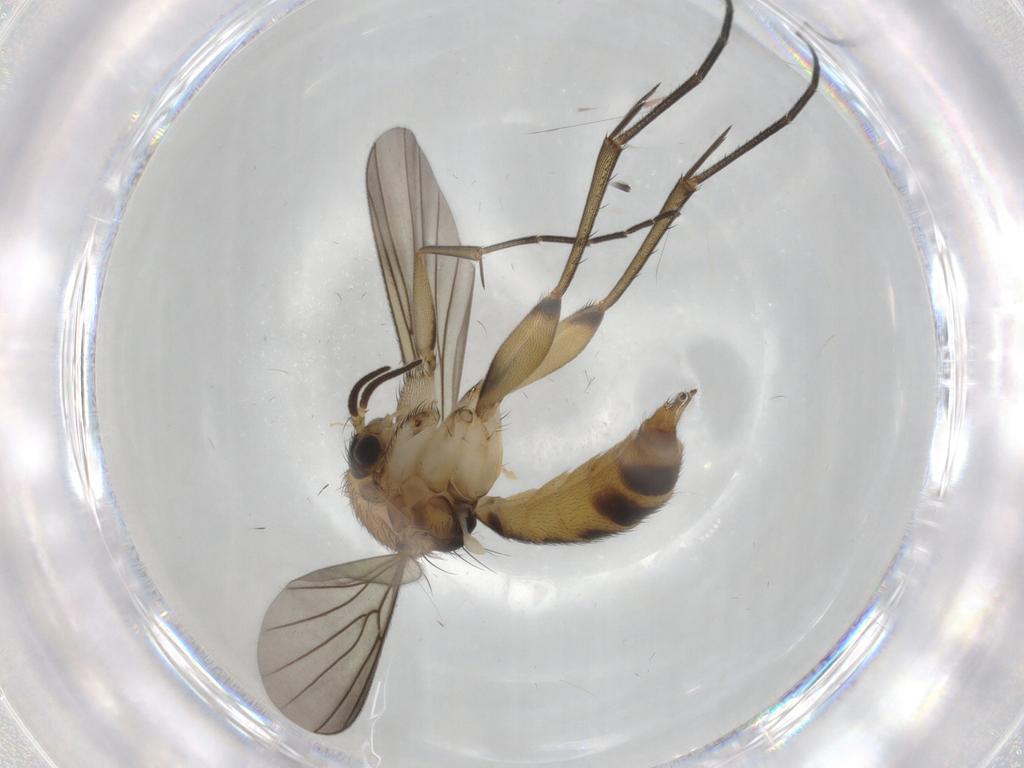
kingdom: Animalia
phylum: Arthropoda
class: Insecta
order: Diptera
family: Mycetophilidae
